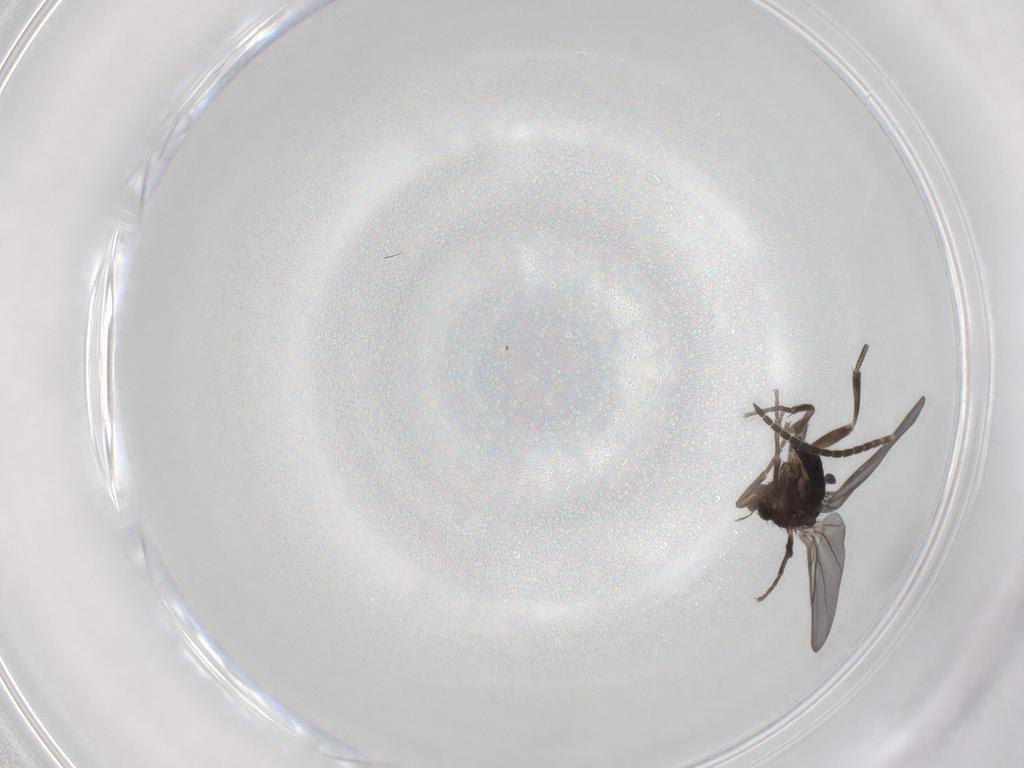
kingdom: Animalia
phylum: Arthropoda
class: Insecta
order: Diptera
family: Phoridae
